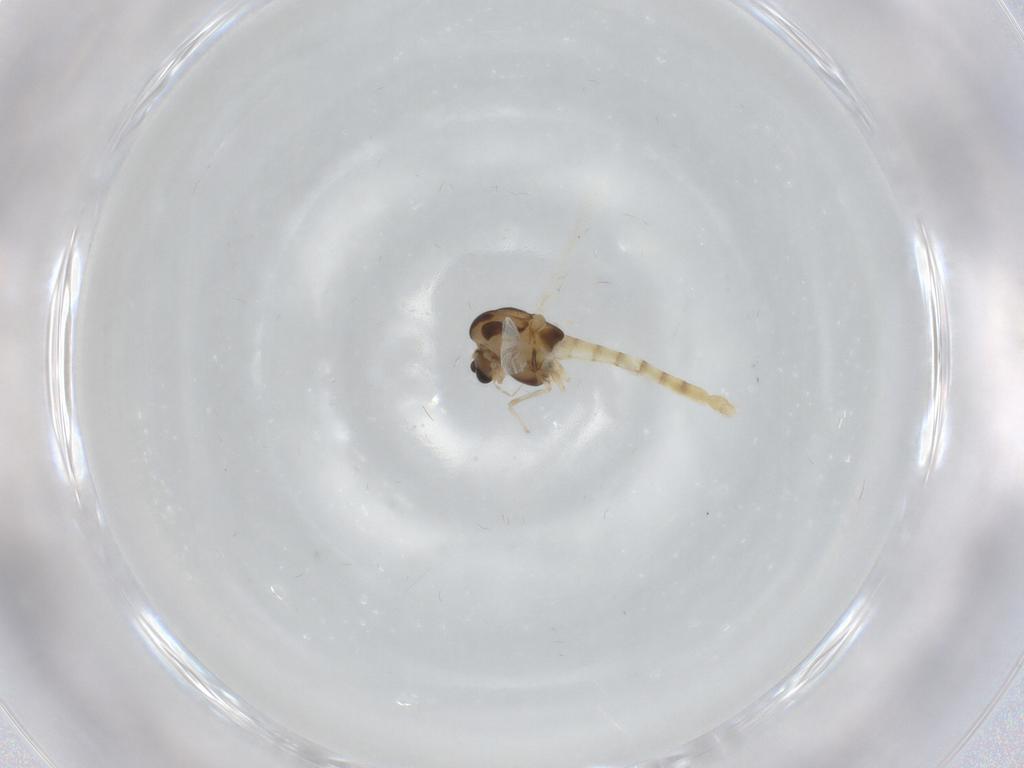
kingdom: Animalia
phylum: Arthropoda
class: Insecta
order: Diptera
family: Chironomidae
